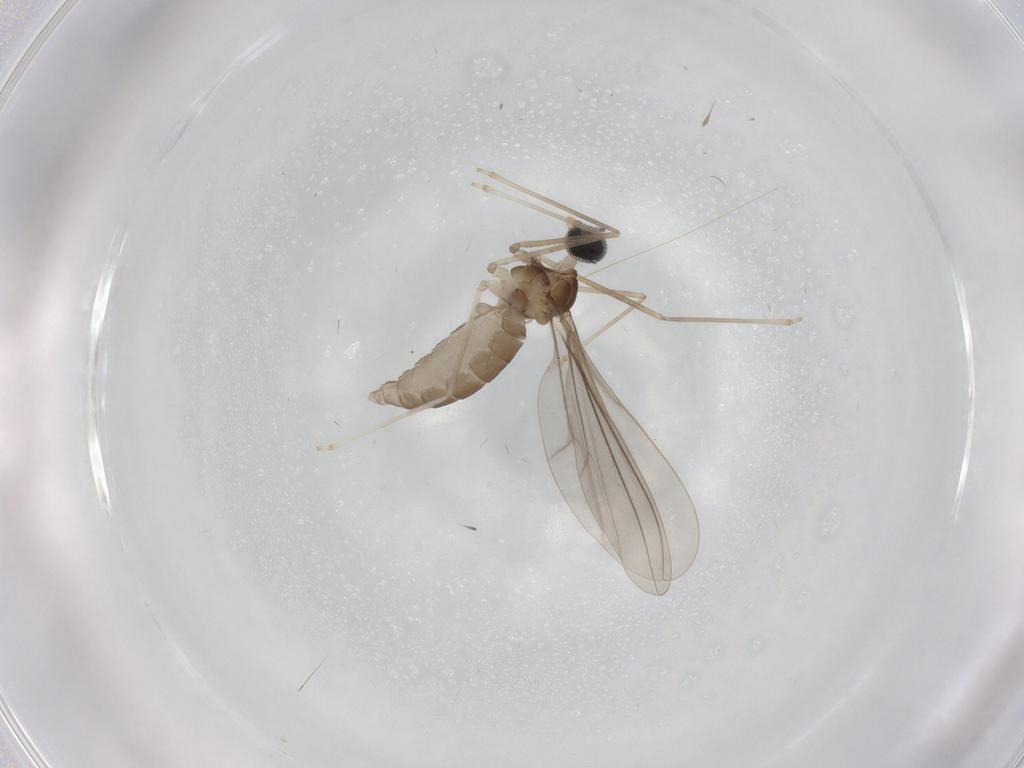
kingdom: Animalia
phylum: Arthropoda
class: Insecta
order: Diptera
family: Cecidomyiidae
